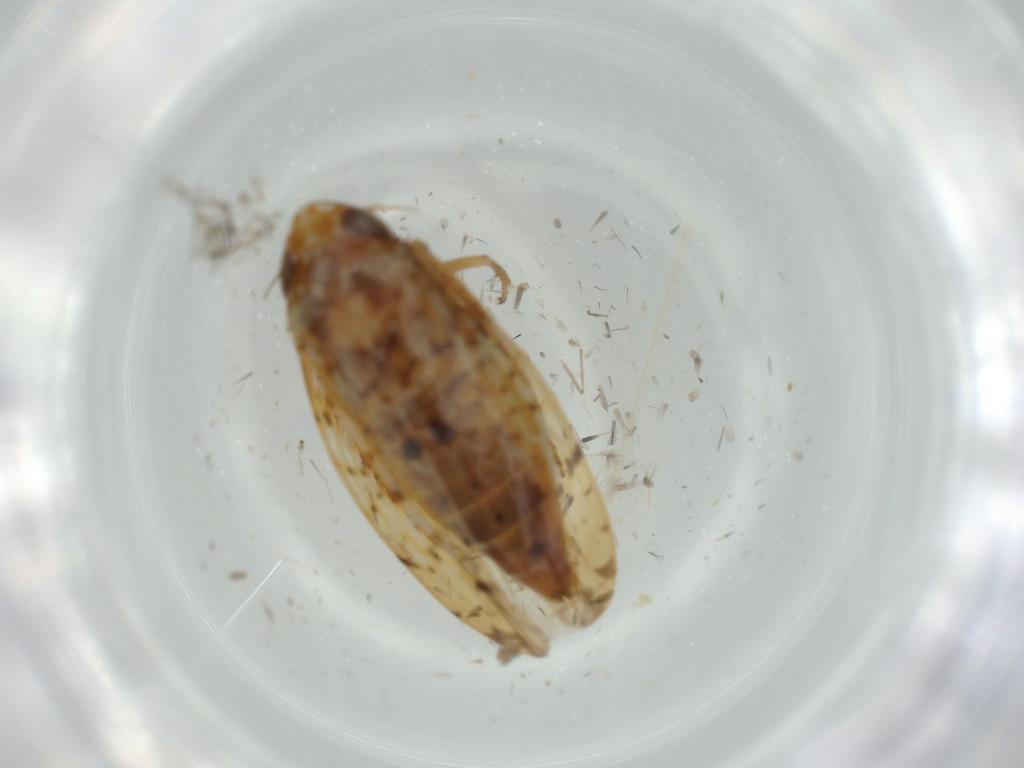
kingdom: Animalia
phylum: Arthropoda
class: Insecta
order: Hemiptera
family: Cicadellidae
